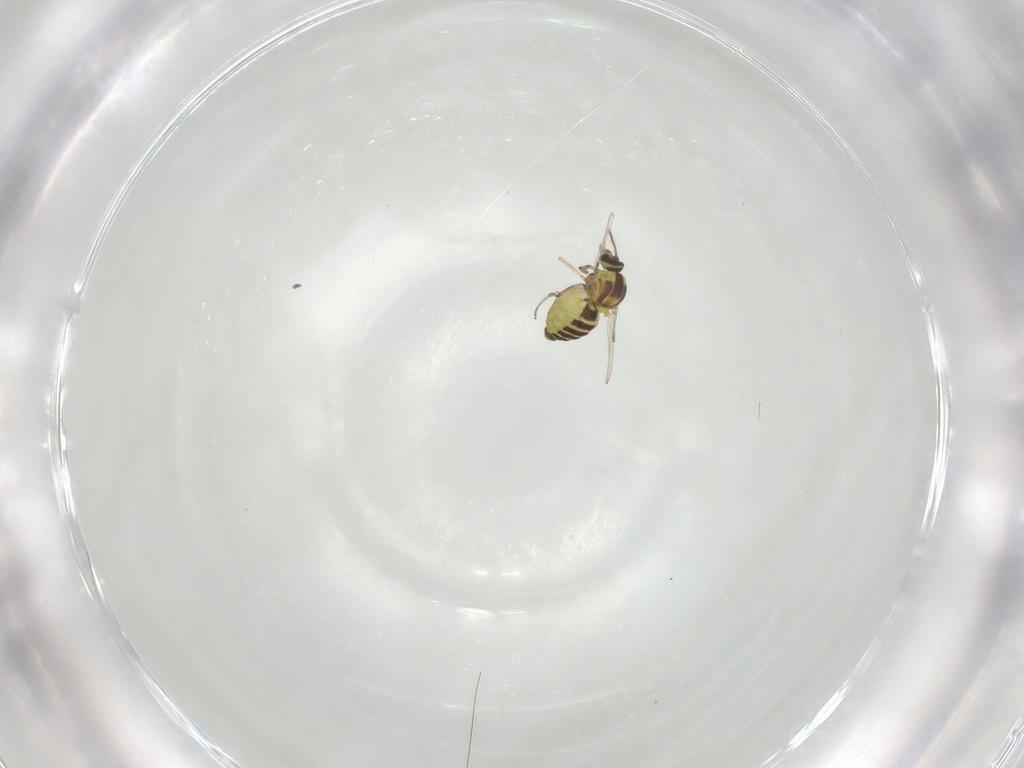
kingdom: Animalia
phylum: Arthropoda
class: Insecta
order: Diptera
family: Ceratopogonidae
